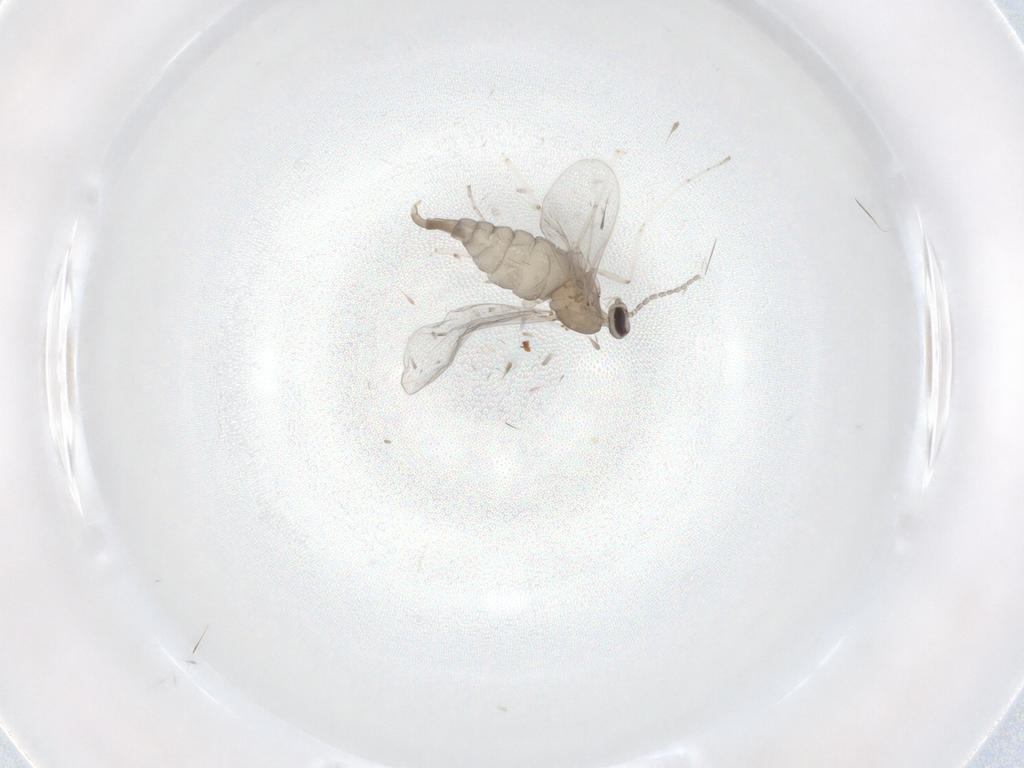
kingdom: Animalia
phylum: Arthropoda
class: Insecta
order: Diptera
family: Cecidomyiidae
